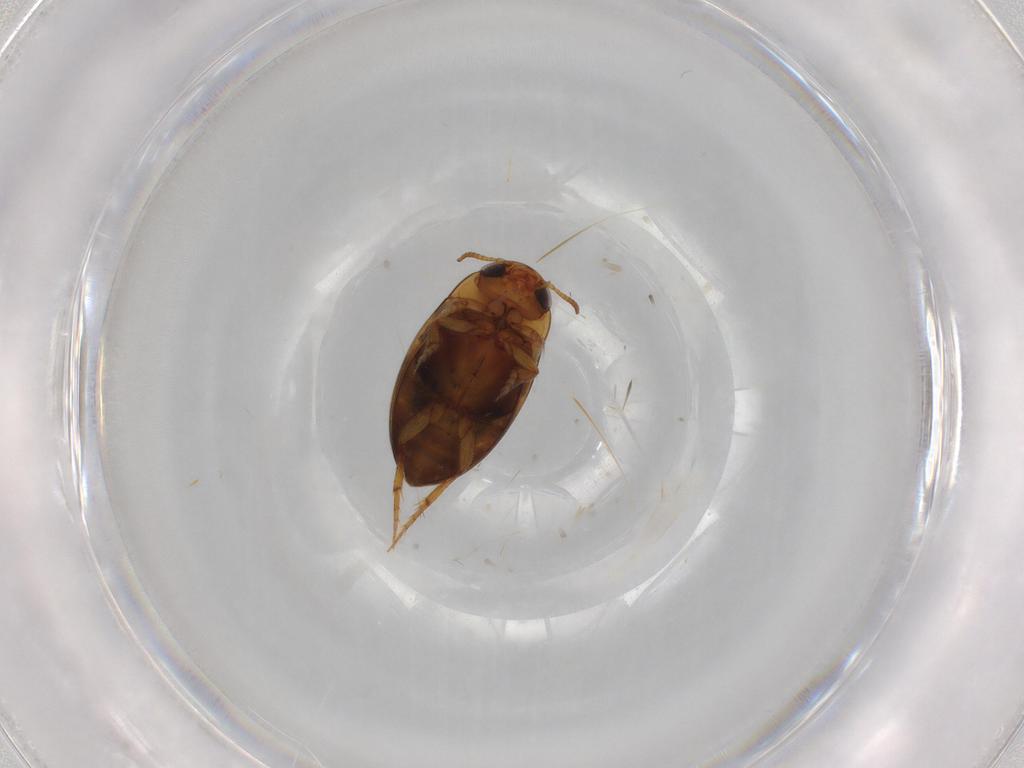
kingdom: Animalia
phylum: Arthropoda
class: Insecta
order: Coleoptera
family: Dytiscidae
